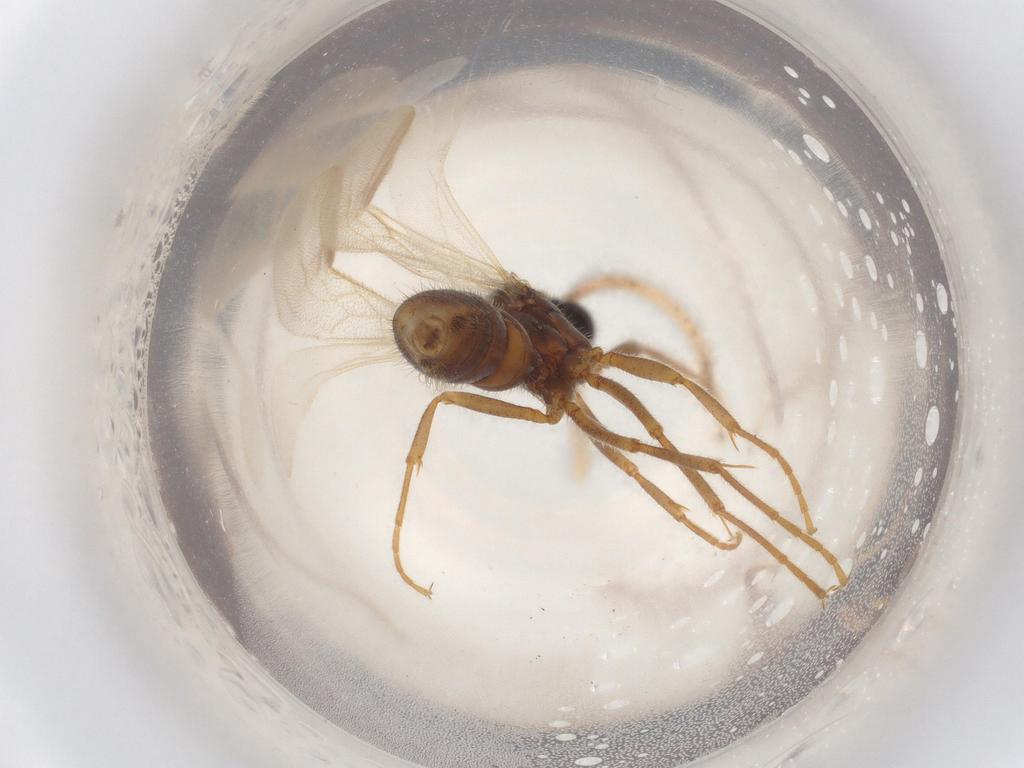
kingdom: Animalia
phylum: Arthropoda
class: Insecta
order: Hymenoptera
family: Formicidae
